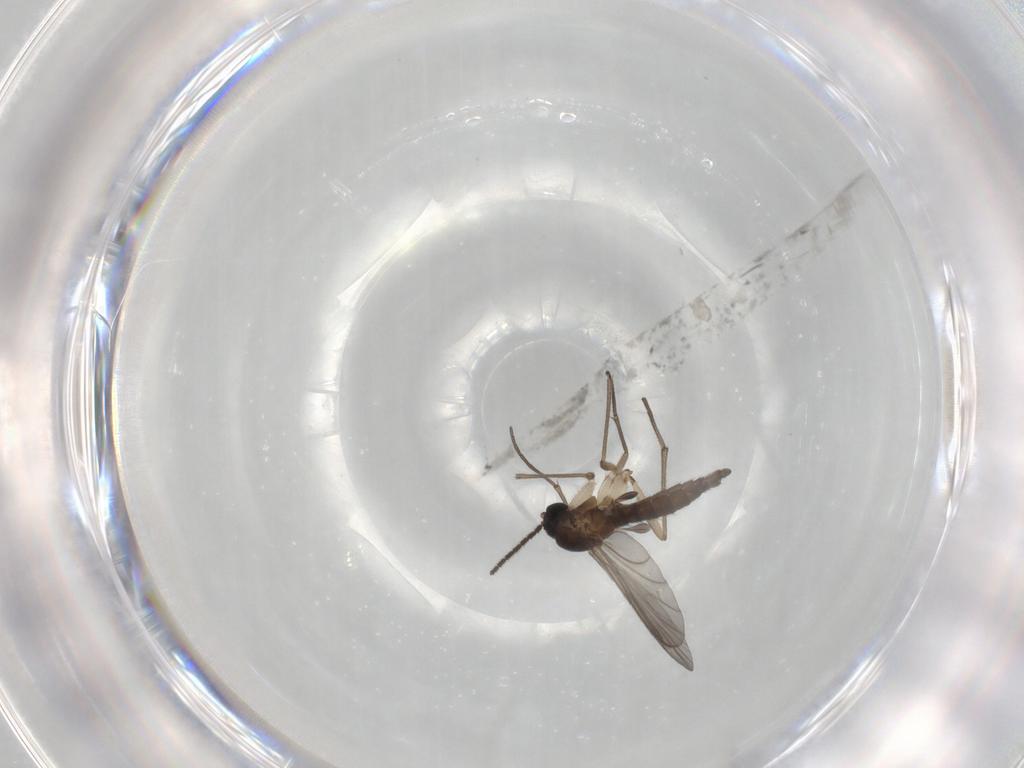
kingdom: Animalia
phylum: Arthropoda
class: Insecta
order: Diptera
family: Sciaridae
